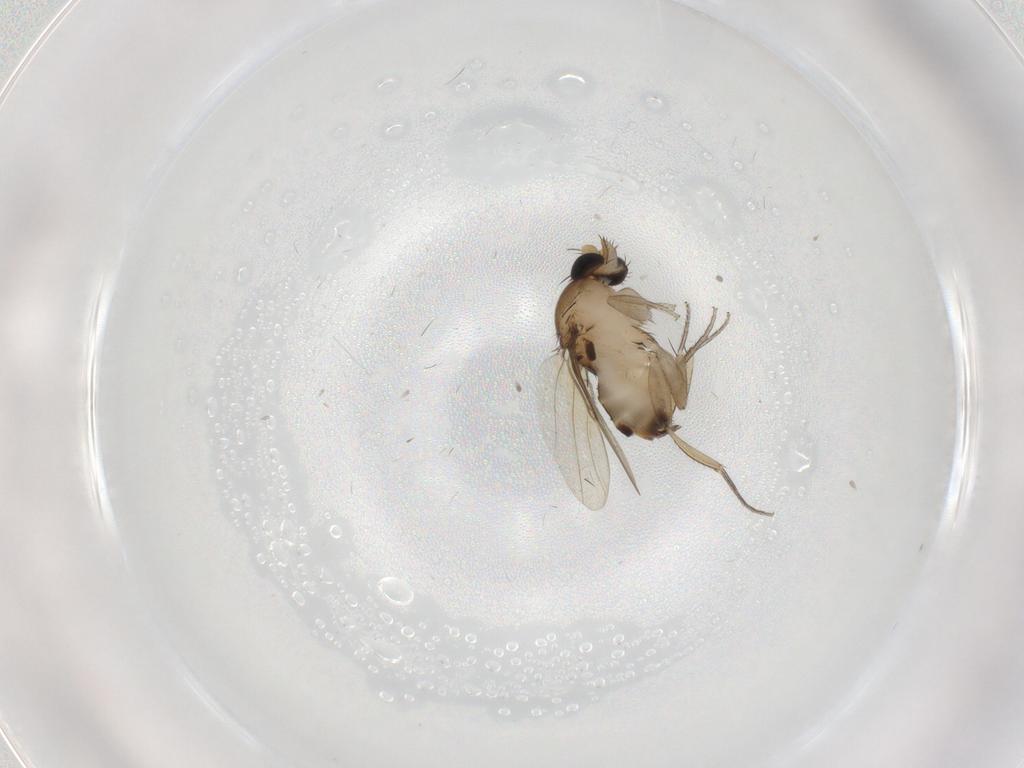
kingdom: Animalia
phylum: Arthropoda
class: Insecta
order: Diptera
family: Phoridae
